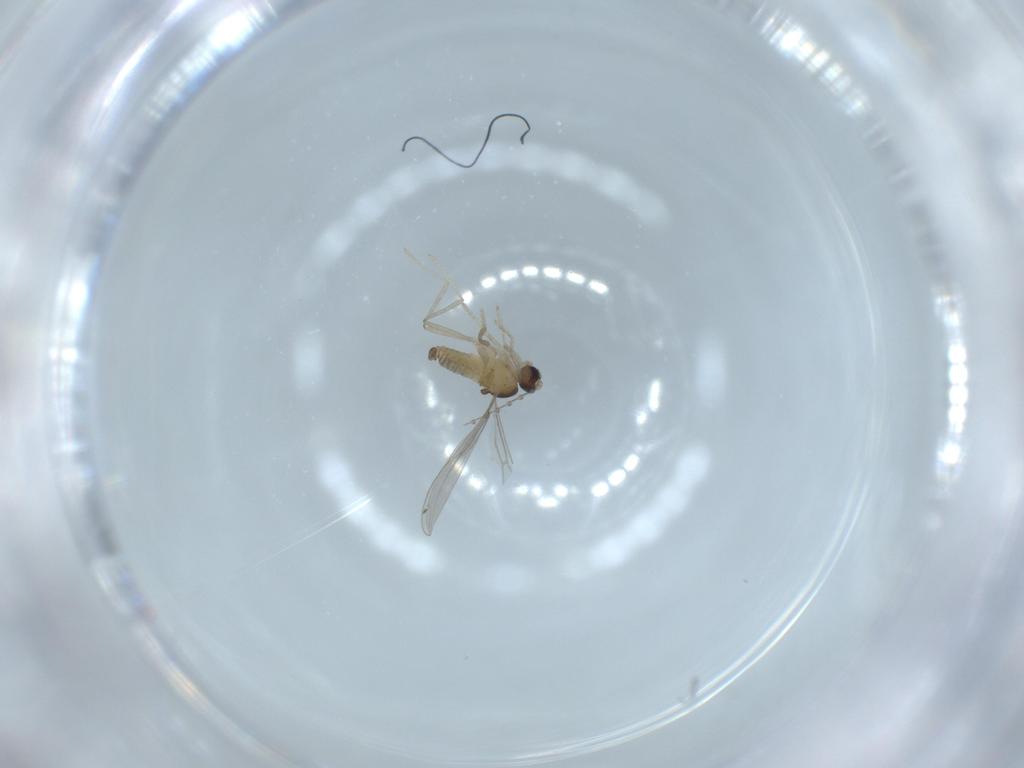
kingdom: Animalia
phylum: Arthropoda
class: Insecta
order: Diptera
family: Cecidomyiidae
